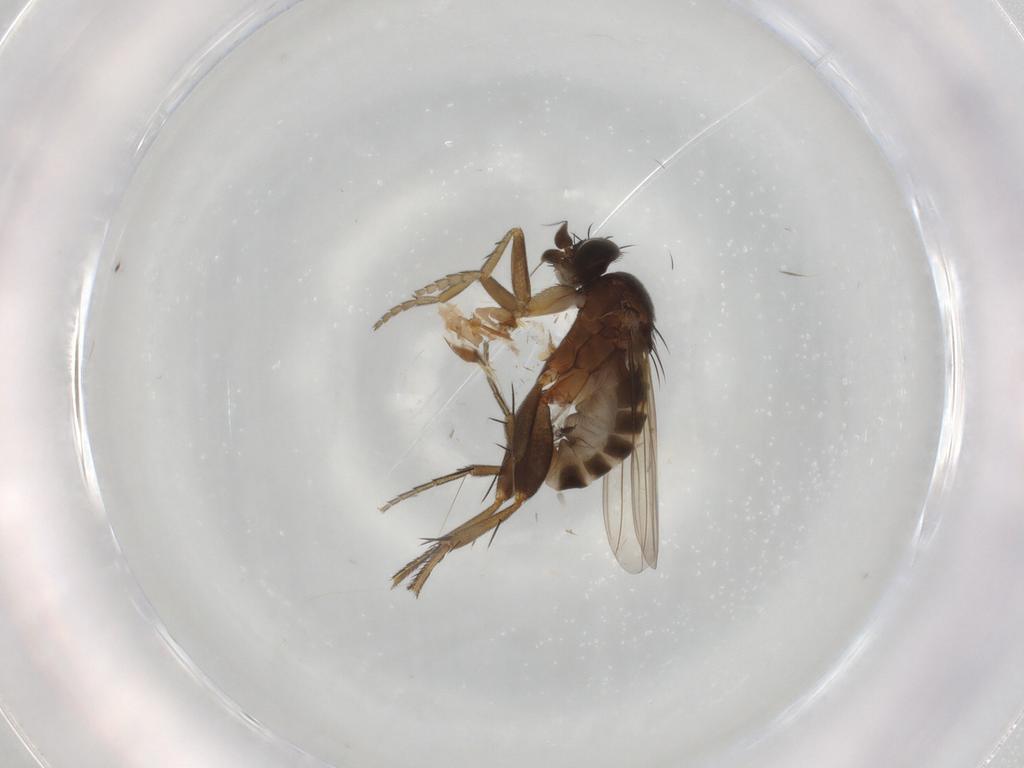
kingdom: Animalia
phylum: Arthropoda
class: Insecta
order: Diptera
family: Phoridae
